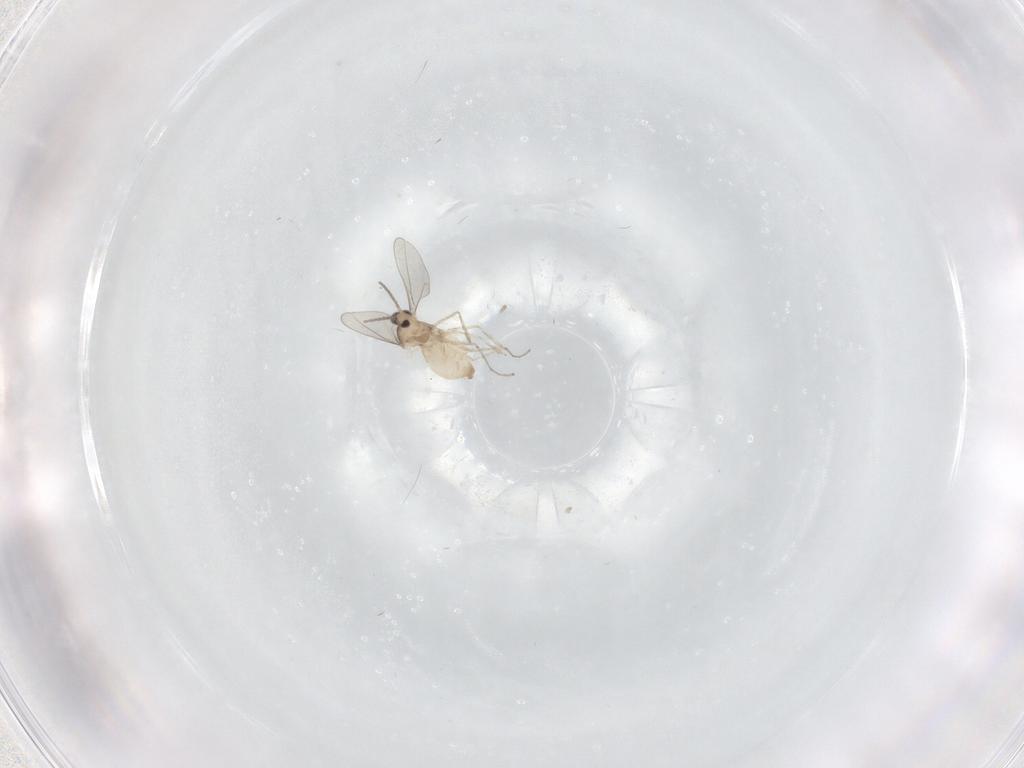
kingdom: Animalia
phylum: Arthropoda
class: Insecta
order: Diptera
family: Cecidomyiidae
